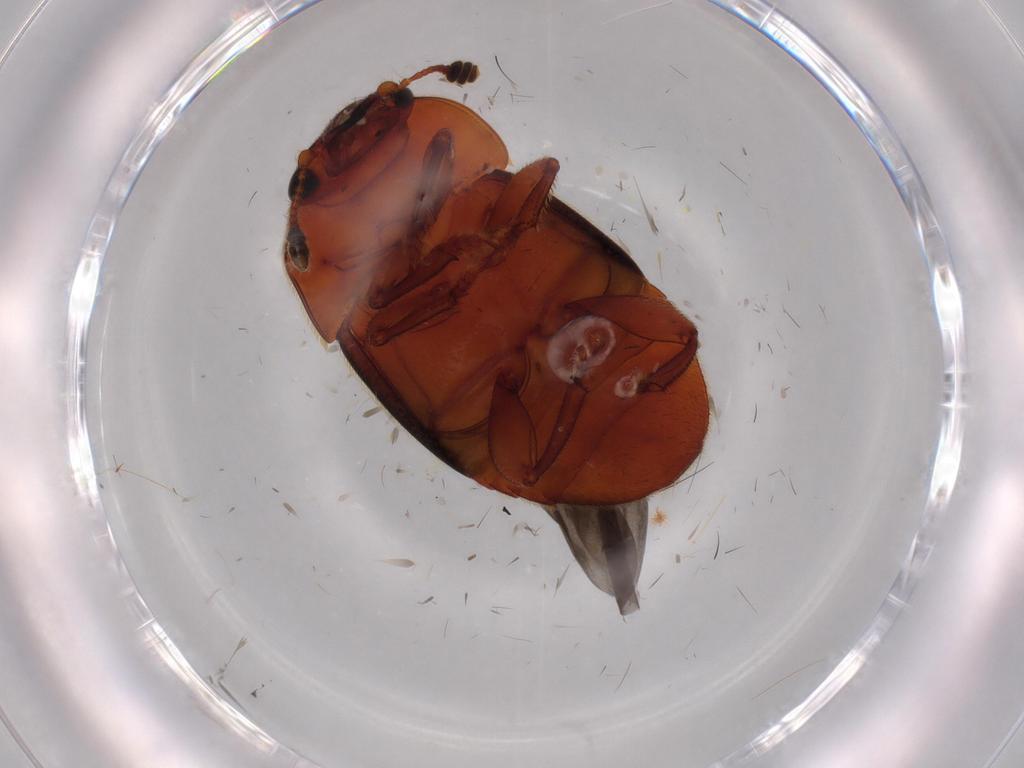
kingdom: Animalia
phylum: Arthropoda
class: Insecta
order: Coleoptera
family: Nitidulidae
